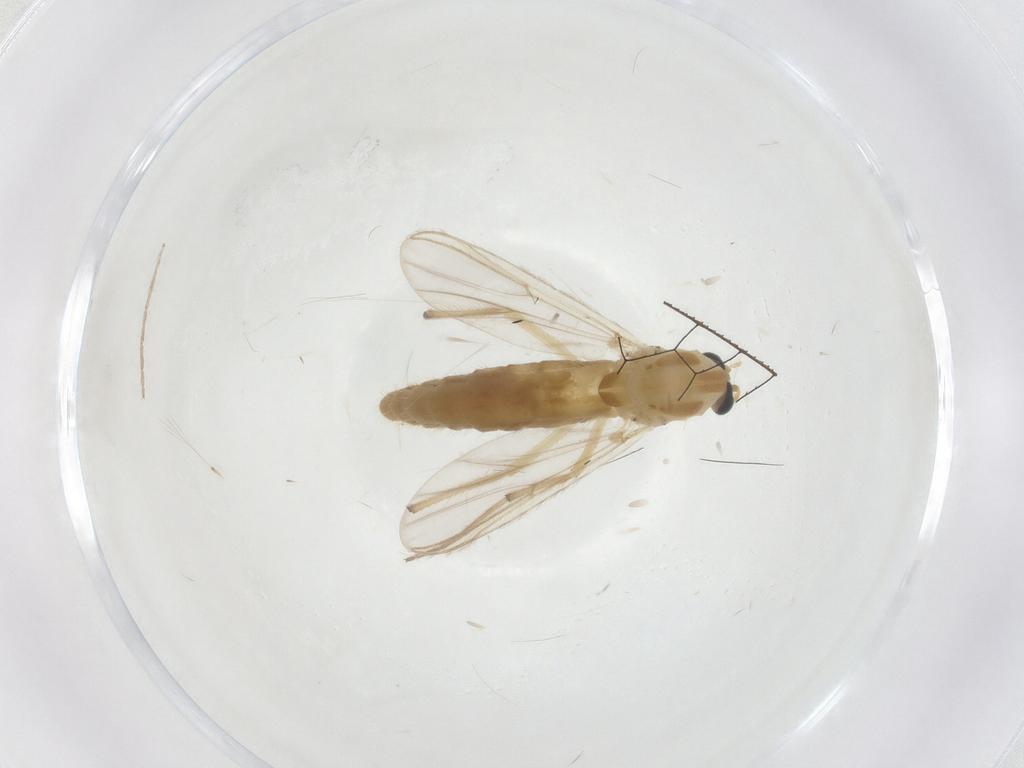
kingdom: Animalia
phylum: Arthropoda
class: Insecta
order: Diptera
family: Chironomidae
